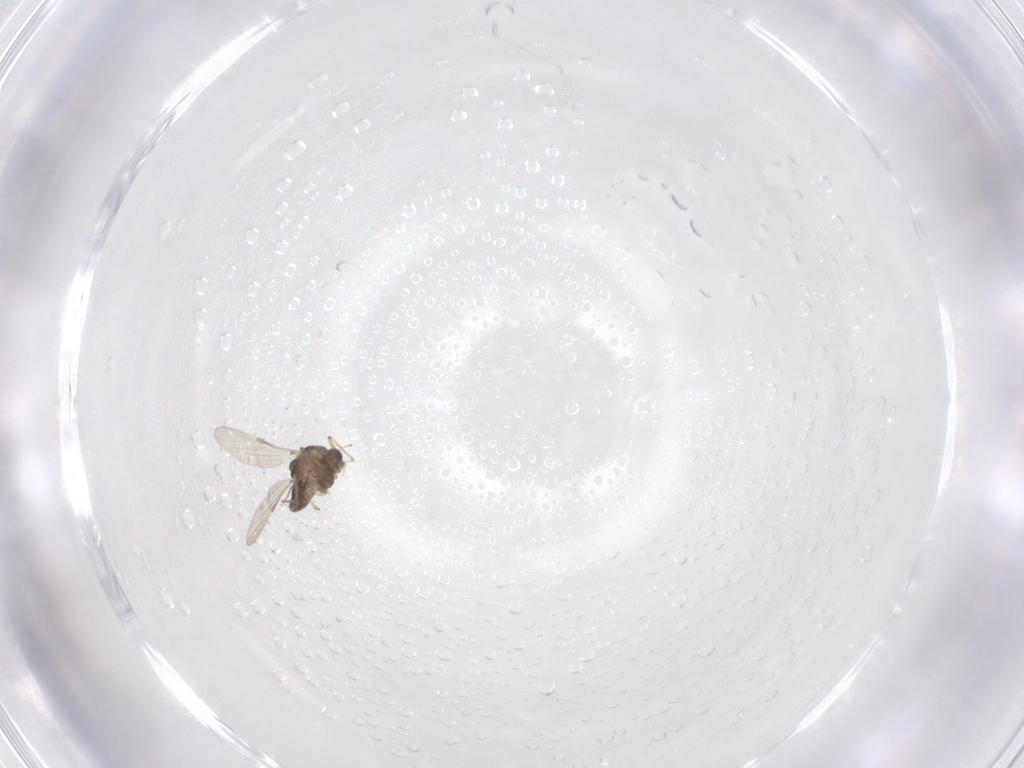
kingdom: Animalia
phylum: Arthropoda
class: Insecta
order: Diptera
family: Chironomidae
